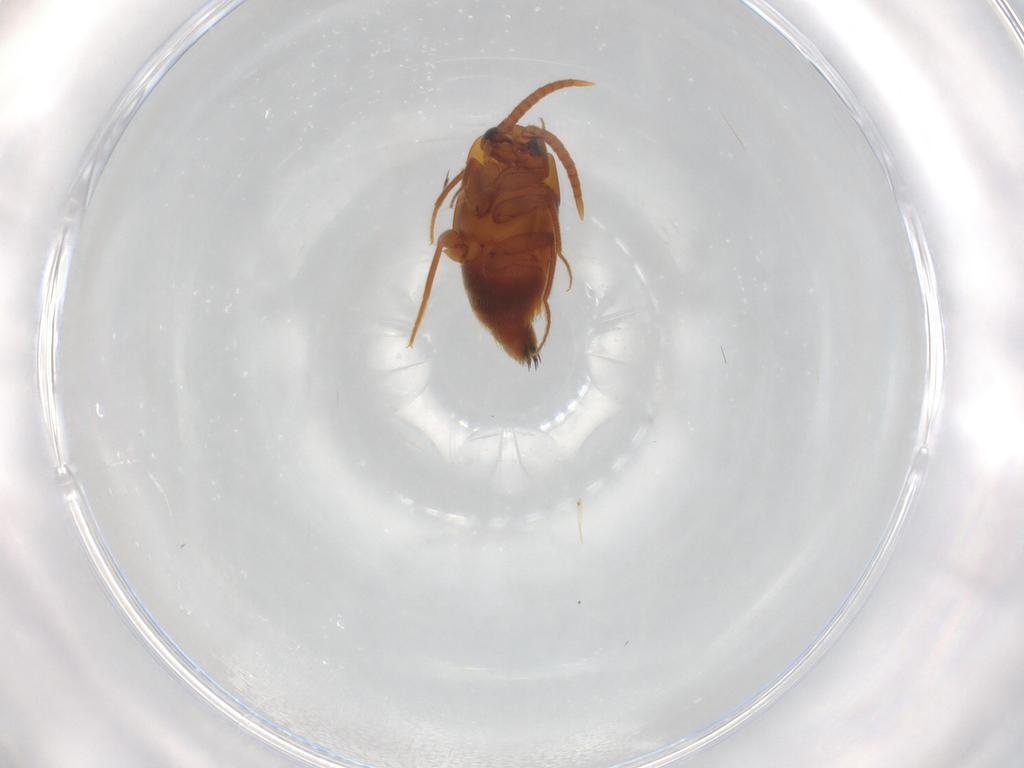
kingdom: Animalia
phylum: Arthropoda
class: Insecta
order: Coleoptera
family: Staphylinidae
